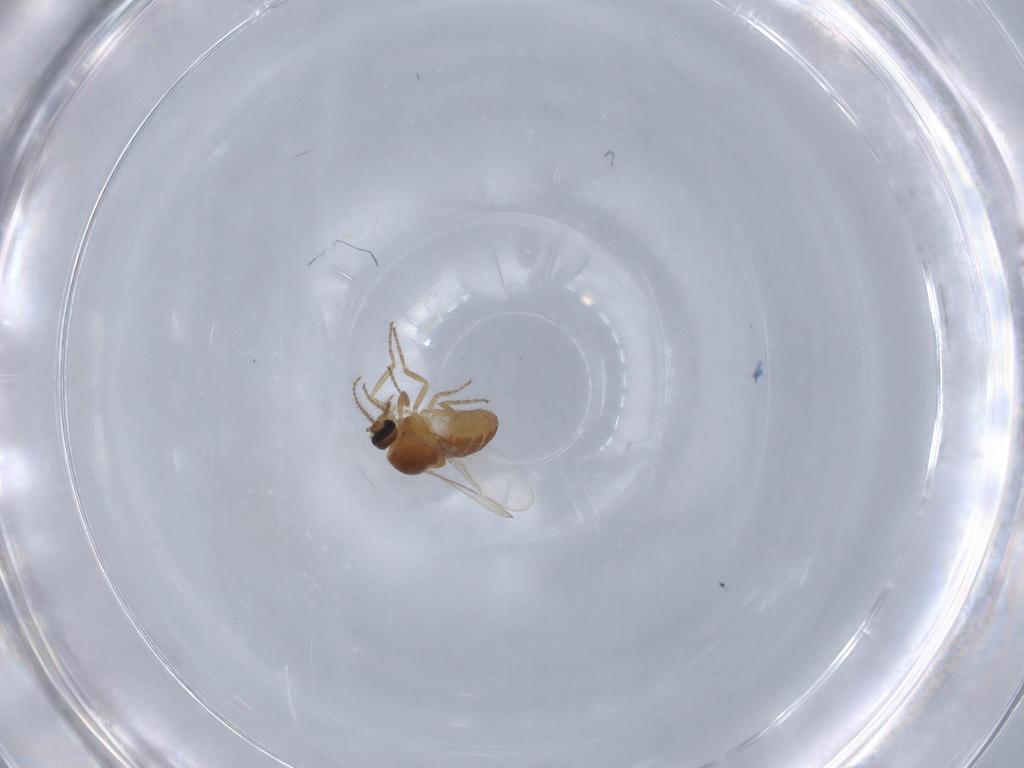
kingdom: Animalia
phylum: Arthropoda
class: Insecta
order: Diptera
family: Ceratopogonidae
